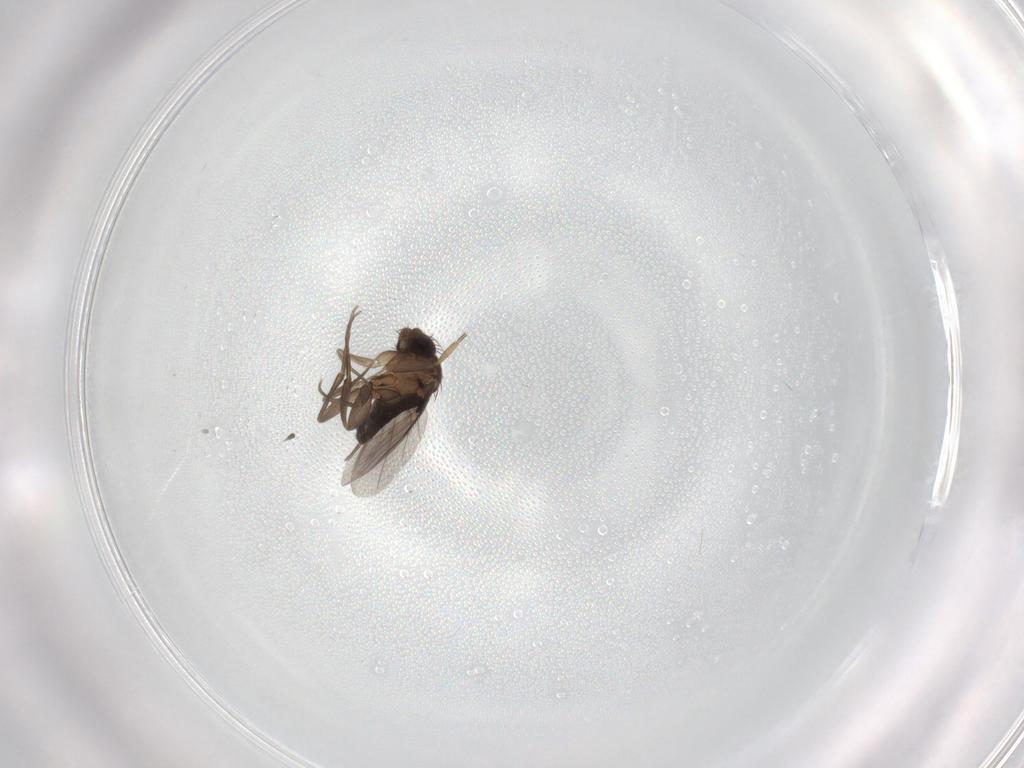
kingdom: Animalia
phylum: Arthropoda
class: Insecta
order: Diptera
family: Phoridae
